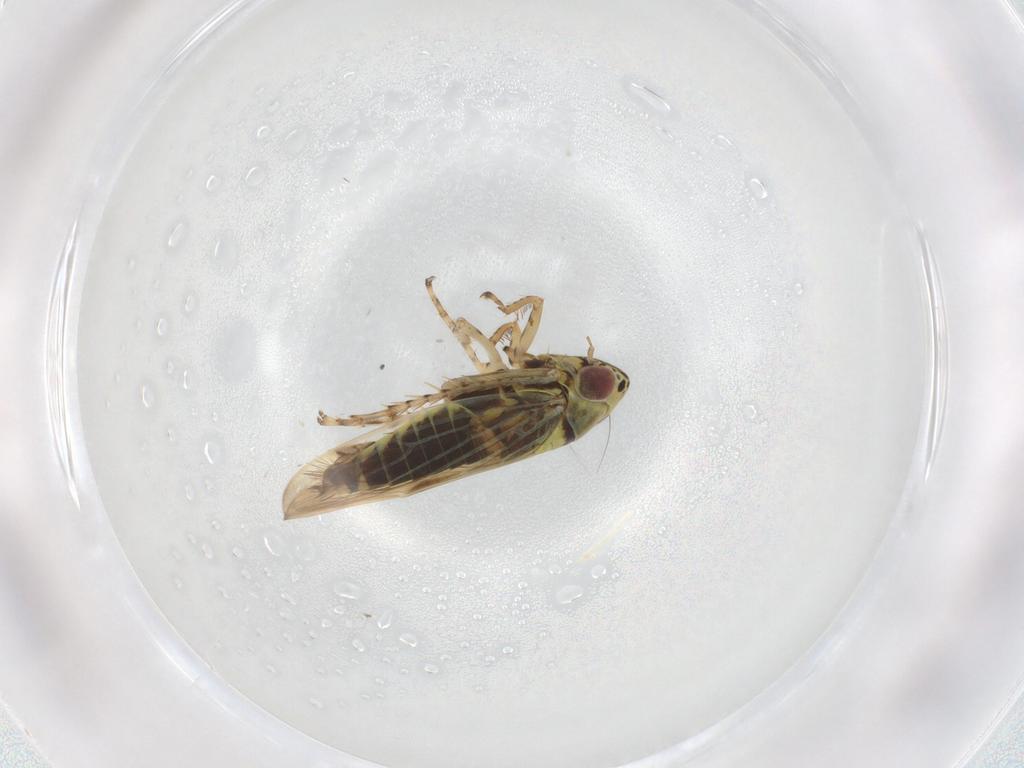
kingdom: Animalia
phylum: Arthropoda
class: Insecta
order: Hemiptera
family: Cicadellidae
